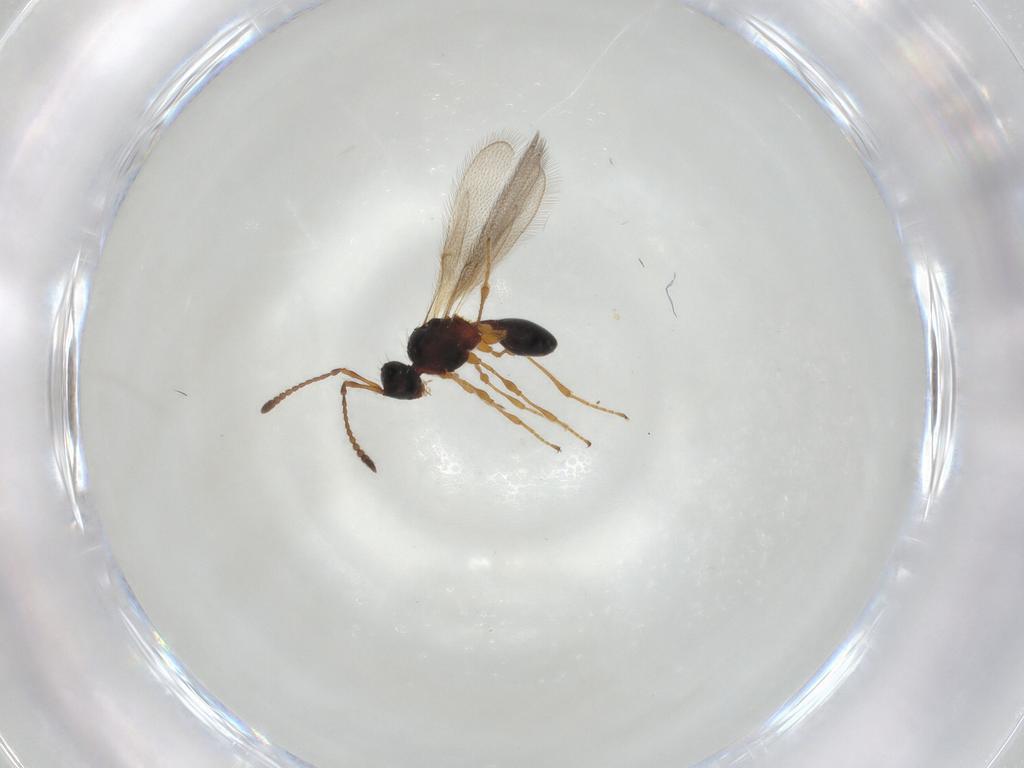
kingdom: Animalia
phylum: Arthropoda
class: Insecta
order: Hymenoptera
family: Diapriidae
